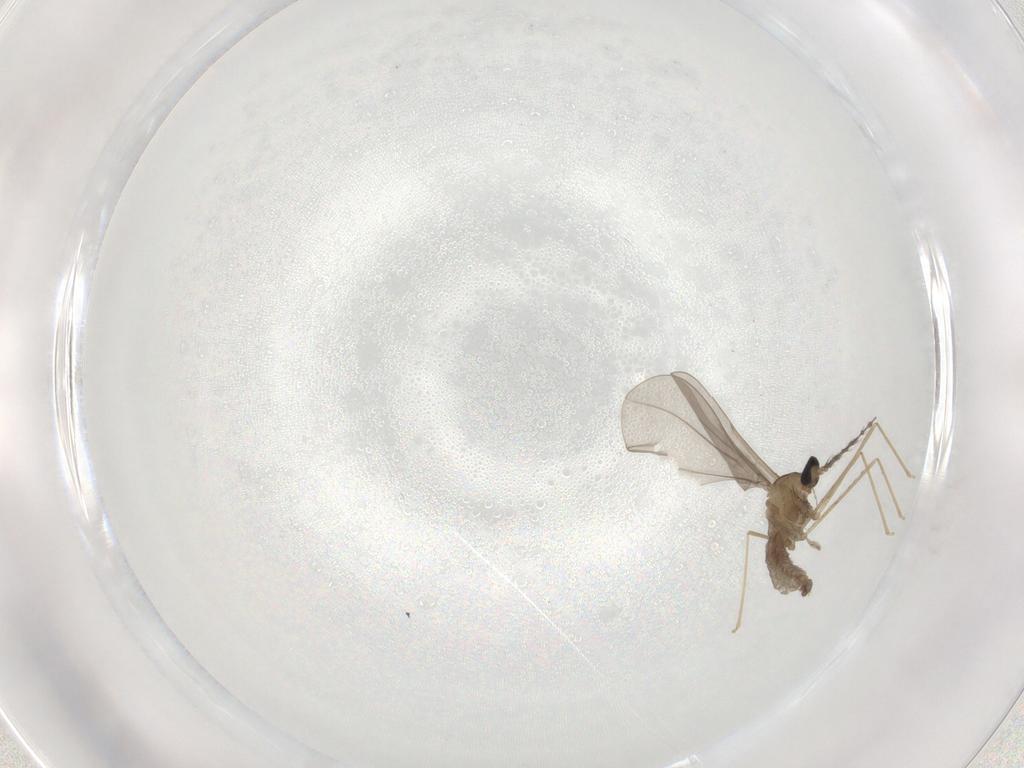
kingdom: Animalia
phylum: Arthropoda
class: Insecta
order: Diptera
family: Cecidomyiidae
